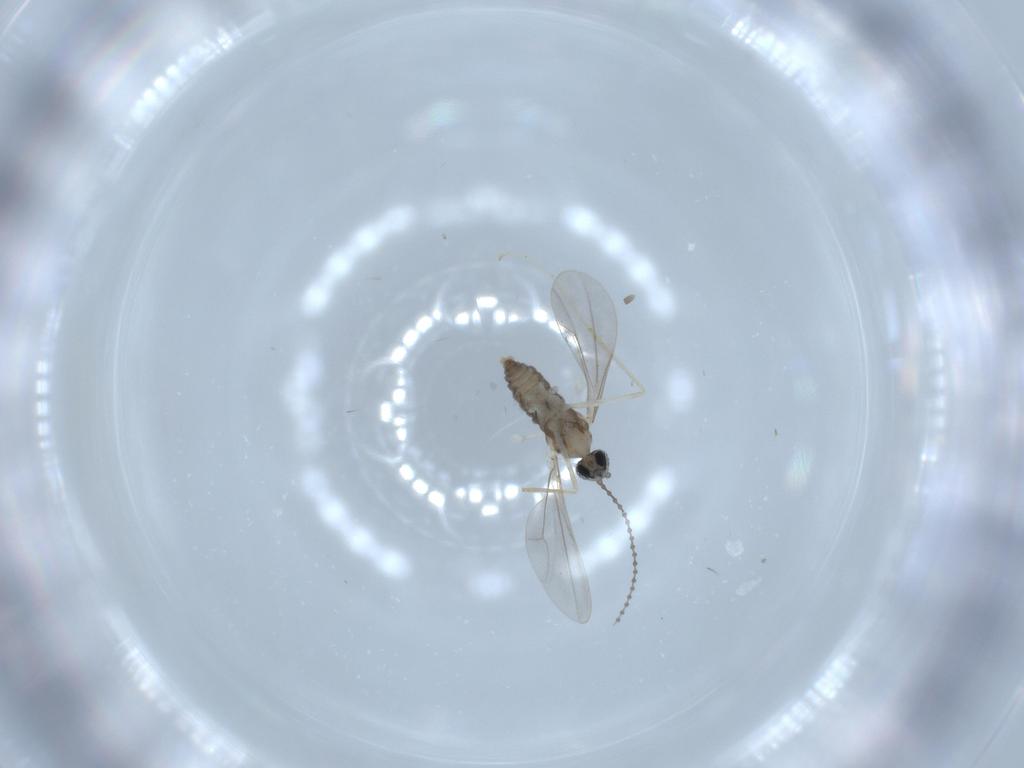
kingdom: Animalia
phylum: Arthropoda
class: Insecta
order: Diptera
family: Cecidomyiidae
